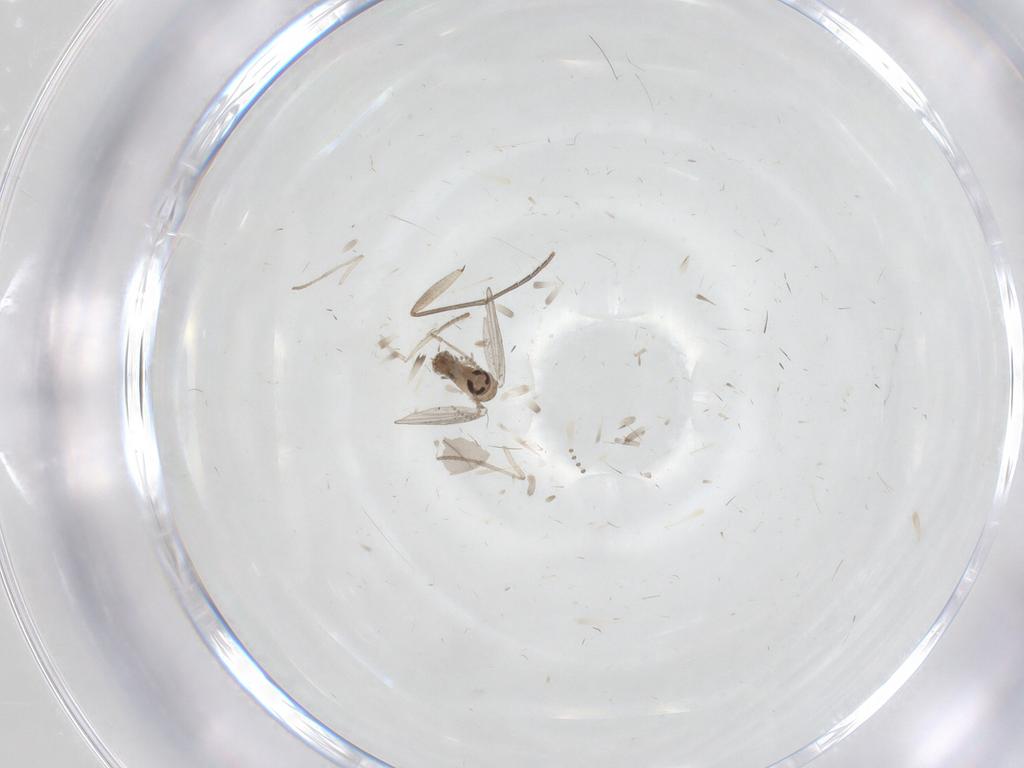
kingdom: Animalia
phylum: Arthropoda
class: Insecta
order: Diptera
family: Psychodidae
